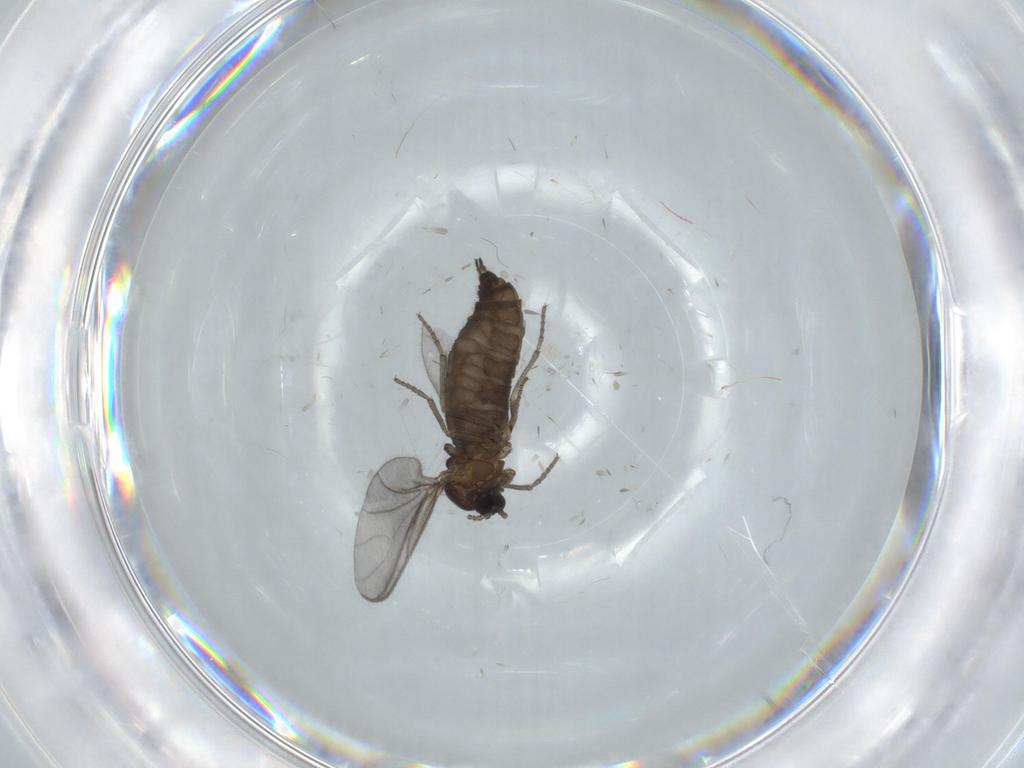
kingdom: Animalia
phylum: Arthropoda
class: Insecta
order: Diptera
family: Sciaridae
